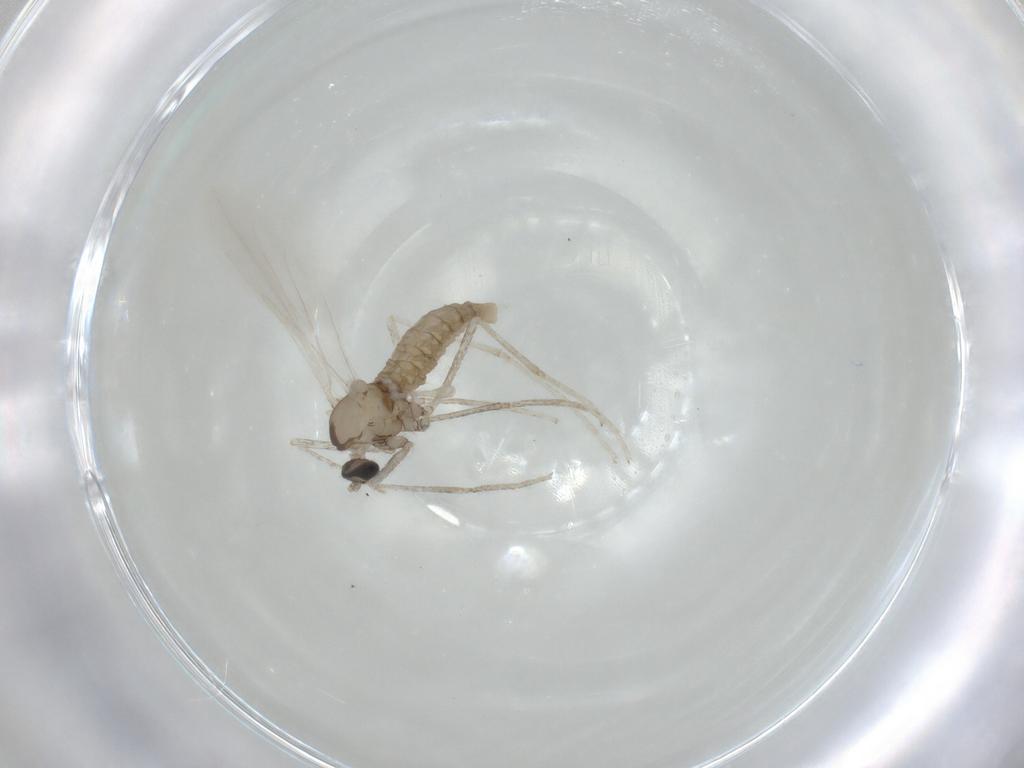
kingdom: Animalia
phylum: Arthropoda
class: Insecta
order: Diptera
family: Cecidomyiidae
